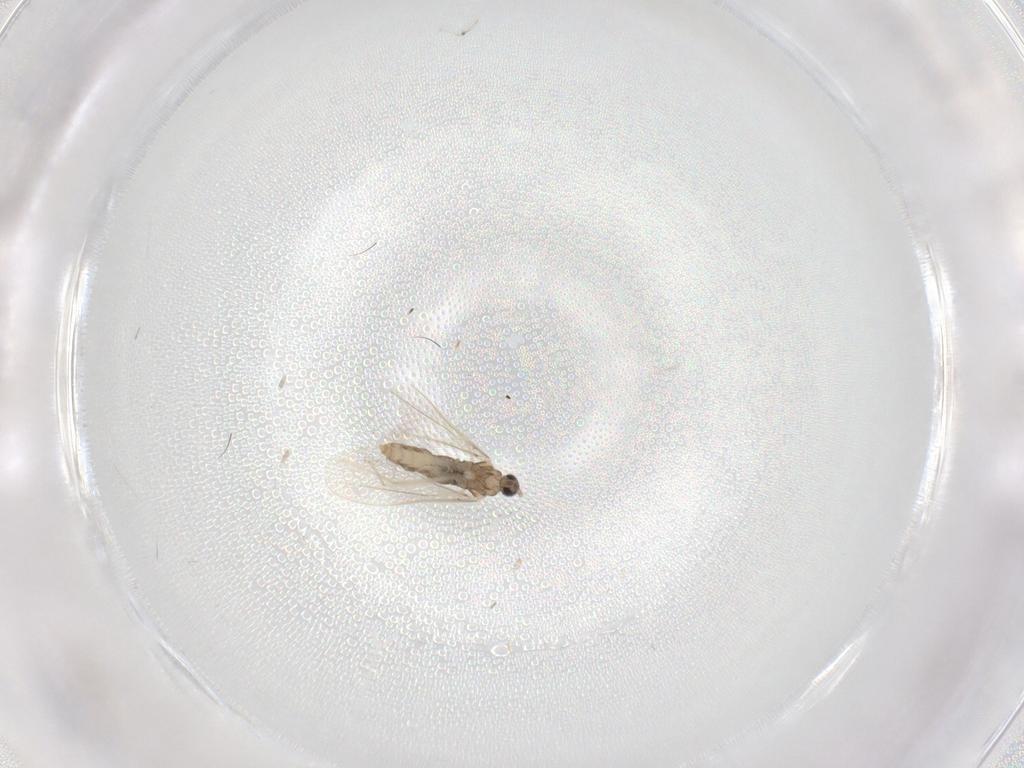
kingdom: Animalia
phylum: Arthropoda
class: Insecta
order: Diptera
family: Cecidomyiidae
